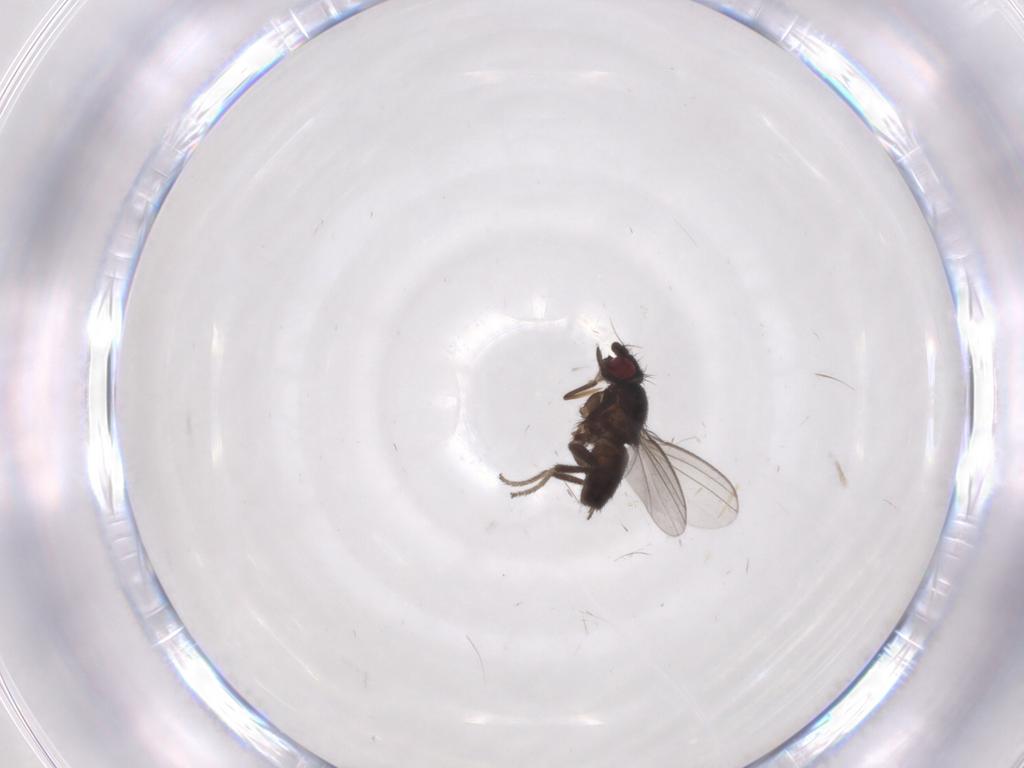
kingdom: Animalia
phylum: Arthropoda
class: Insecta
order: Diptera
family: Milichiidae
